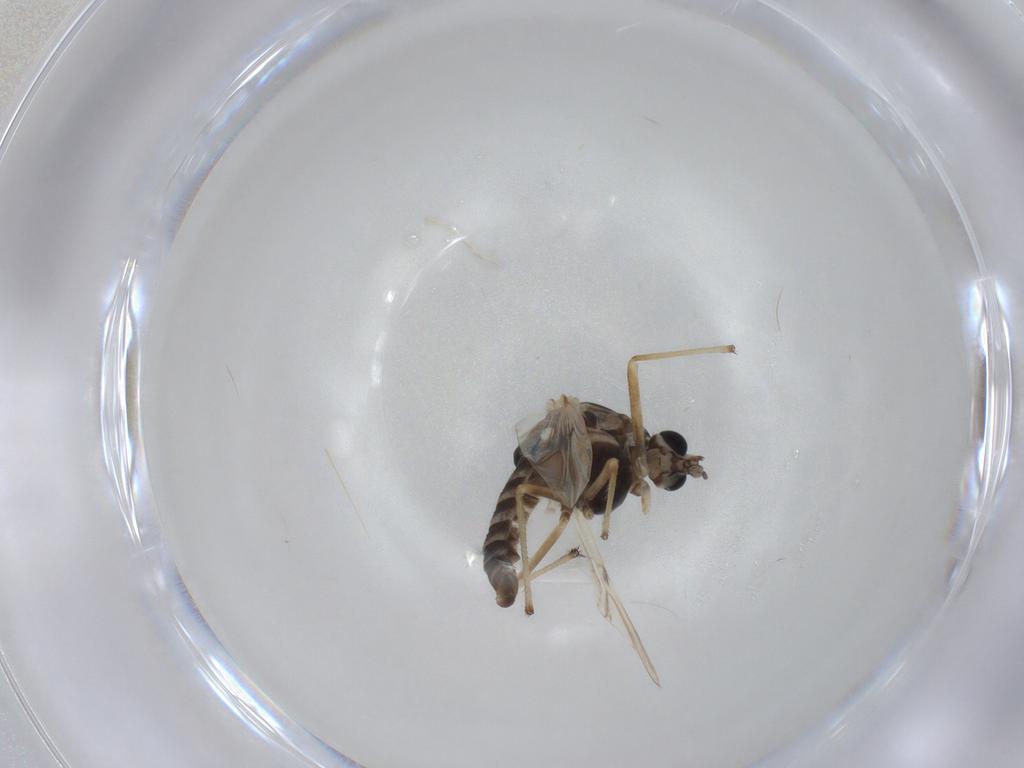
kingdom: Animalia
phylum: Arthropoda
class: Insecta
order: Diptera
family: Chironomidae
